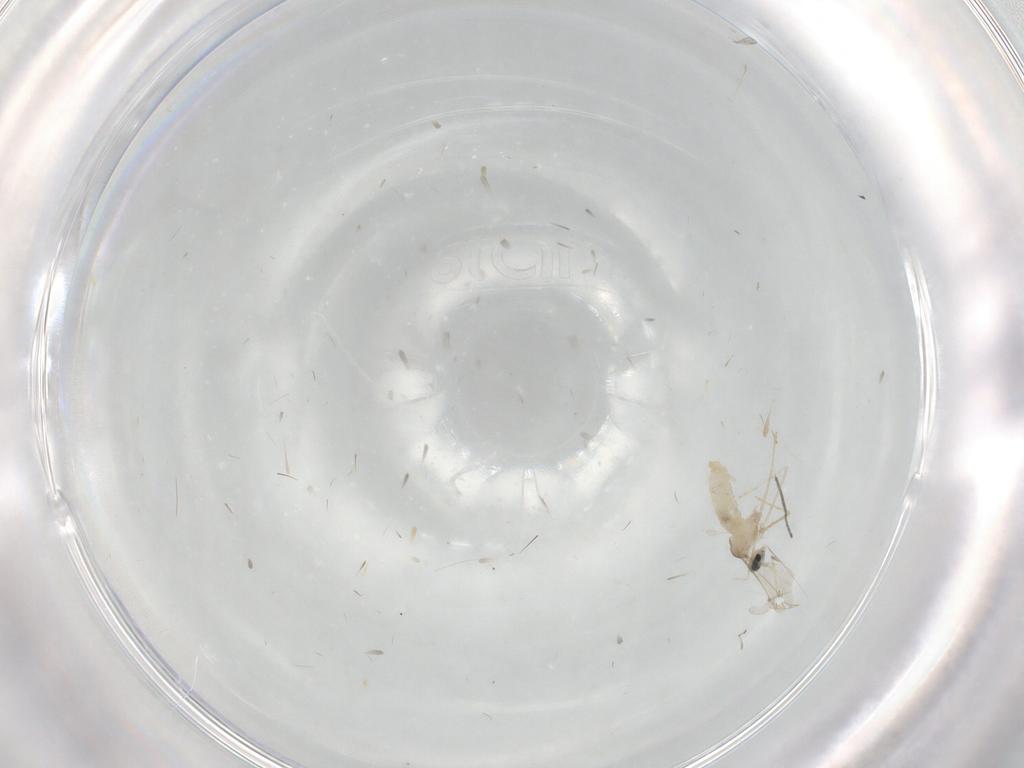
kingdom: Animalia
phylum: Arthropoda
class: Insecta
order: Diptera
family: Cecidomyiidae
